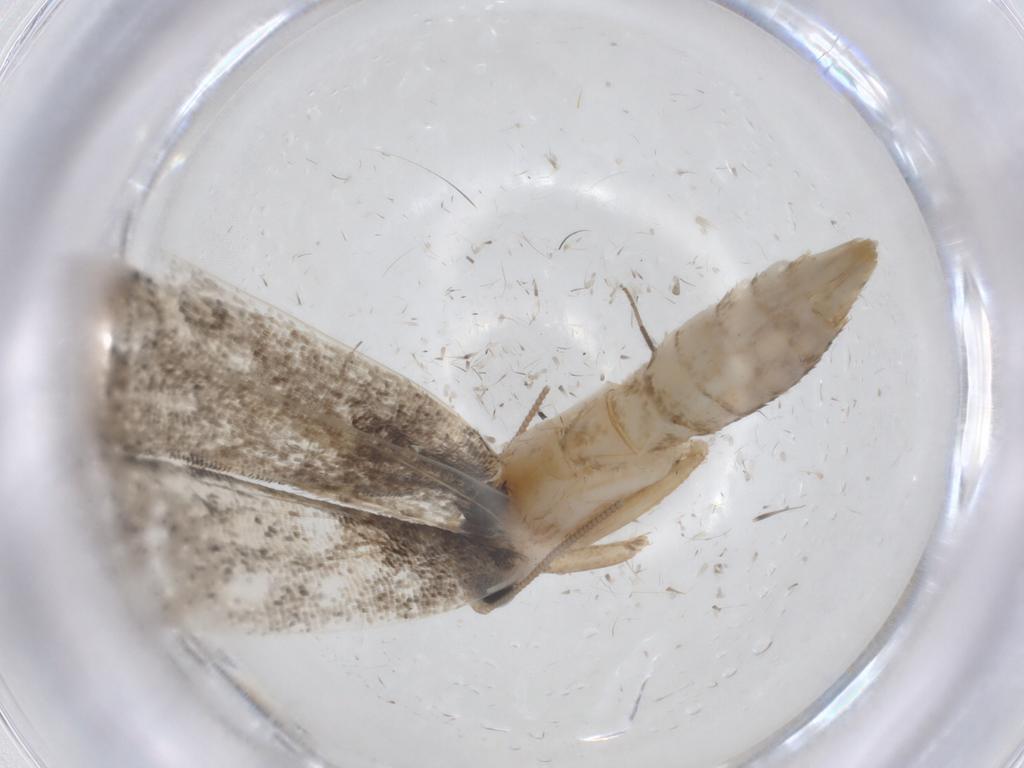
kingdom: Animalia
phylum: Arthropoda
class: Insecta
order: Lepidoptera
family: Tineidae
